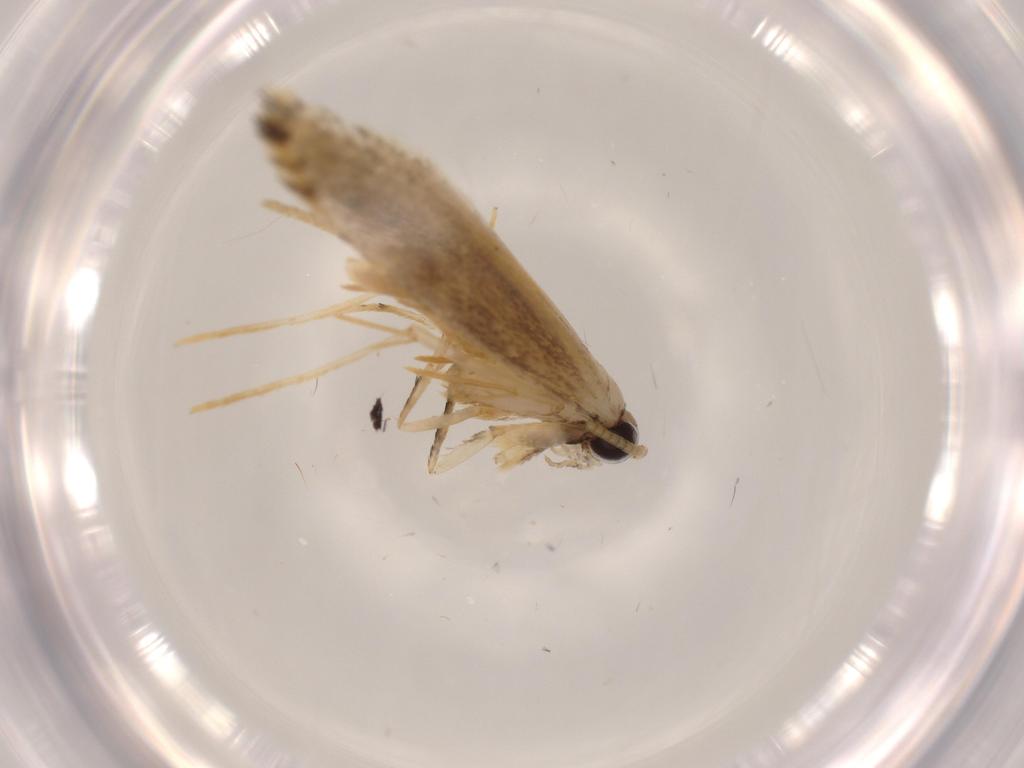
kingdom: Animalia
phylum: Arthropoda
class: Insecta
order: Lepidoptera
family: Tineidae
